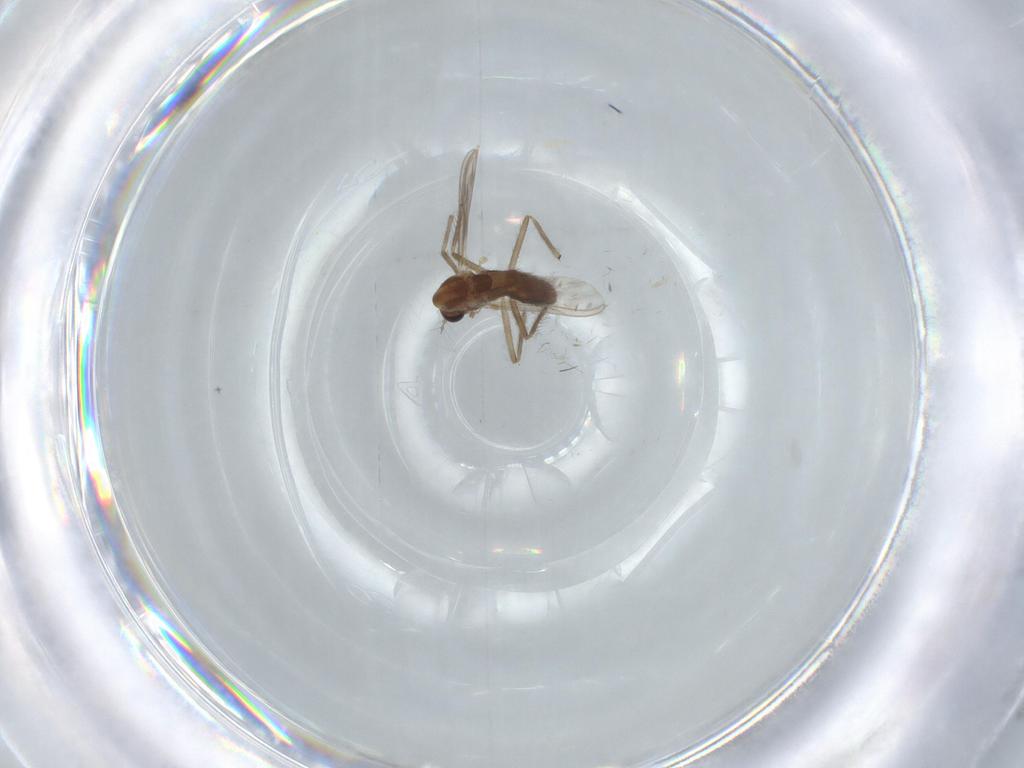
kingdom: Animalia
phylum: Arthropoda
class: Insecta
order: Diptera
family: Chironomidae
